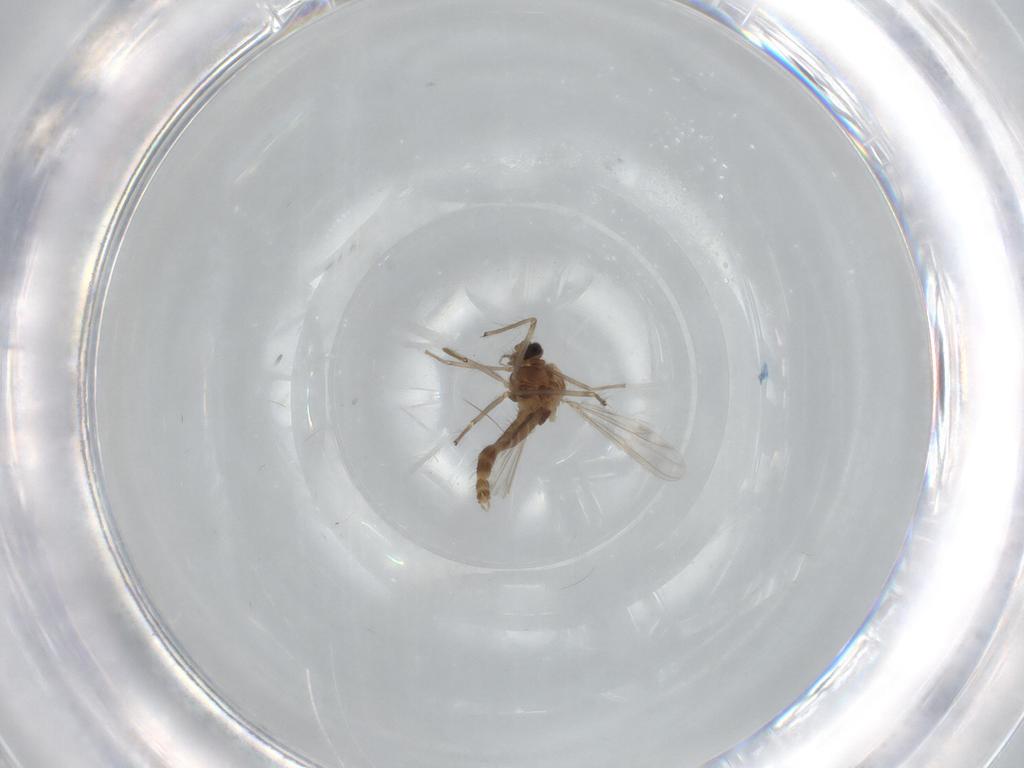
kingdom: Animalia
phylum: Arthropoda
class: Insecta
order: Diptera
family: Chironomidae
